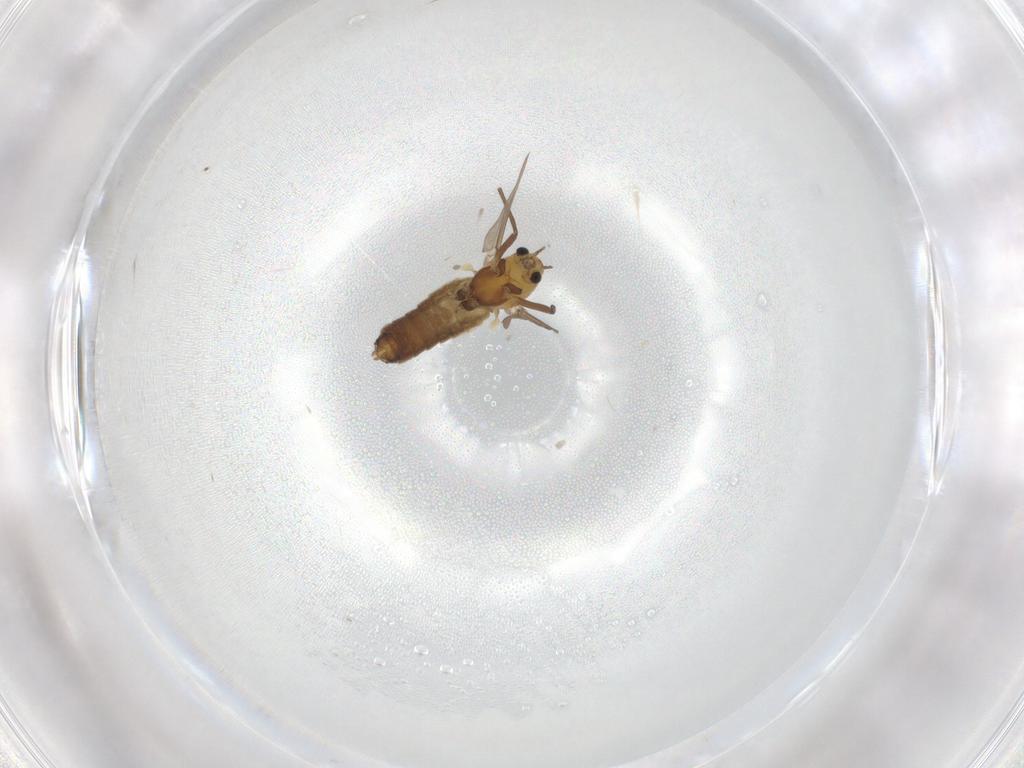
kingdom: Animalia
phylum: Arthropoda
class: Insecta
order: Diptera
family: Chironomidae
